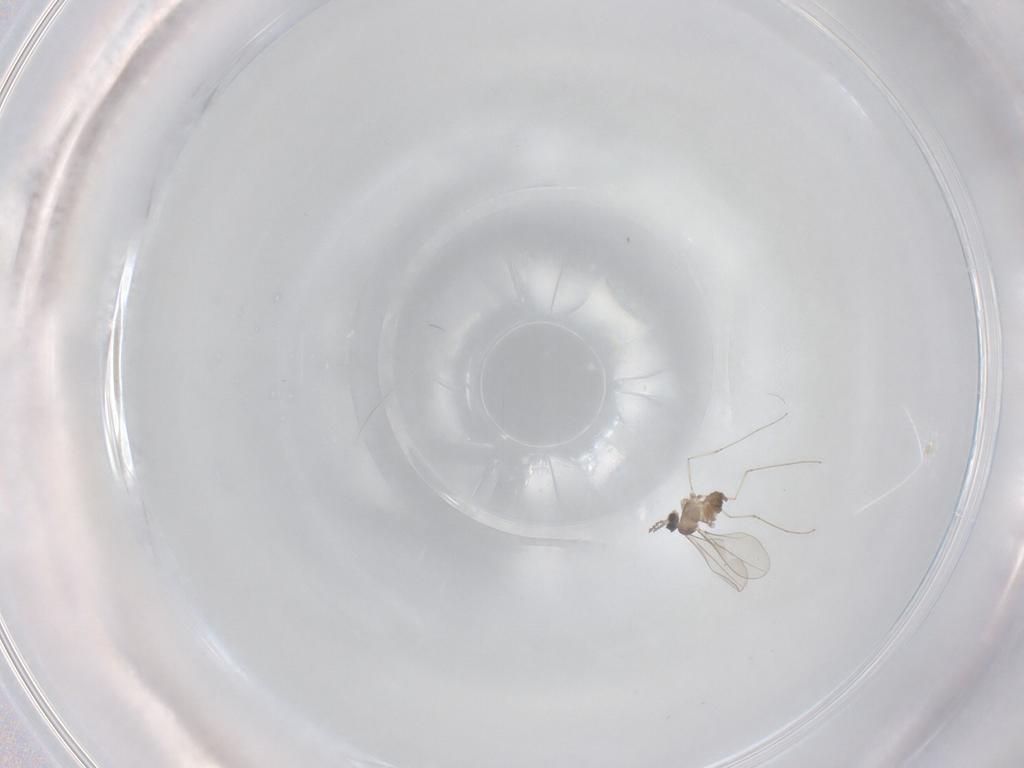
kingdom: Animalia
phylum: Arthropoda
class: Insecta
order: Diptera
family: Cecidomyiidae
